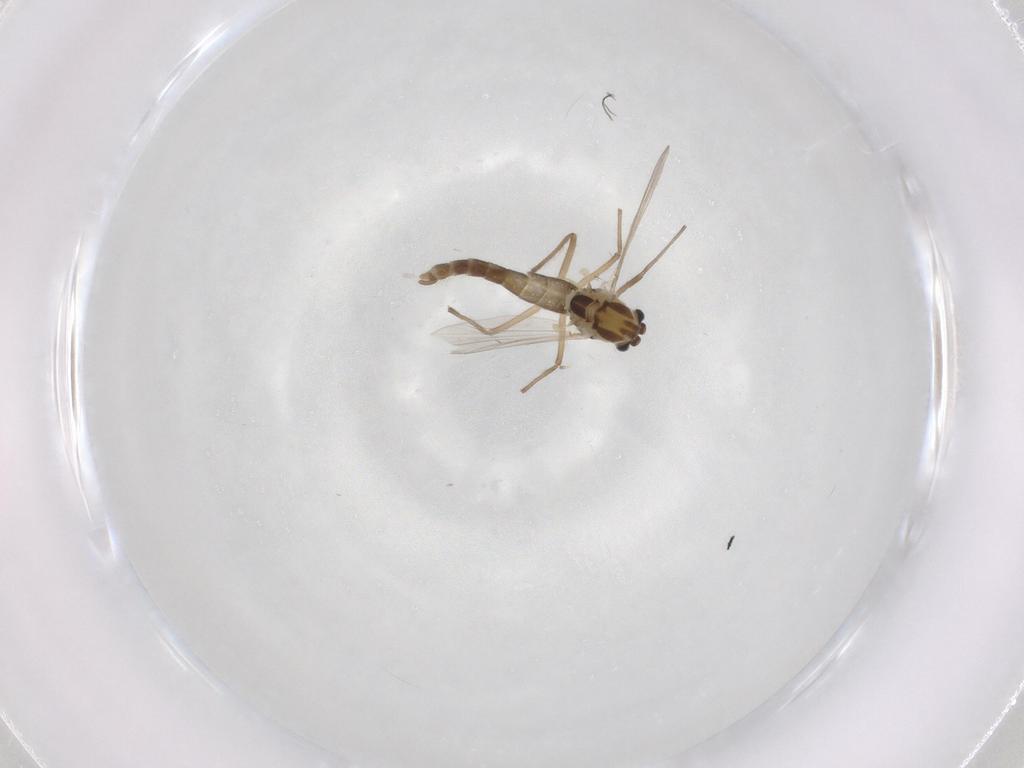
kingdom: Animalia
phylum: Arthropoda
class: Insecta
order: Diptera
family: Chironomidae
